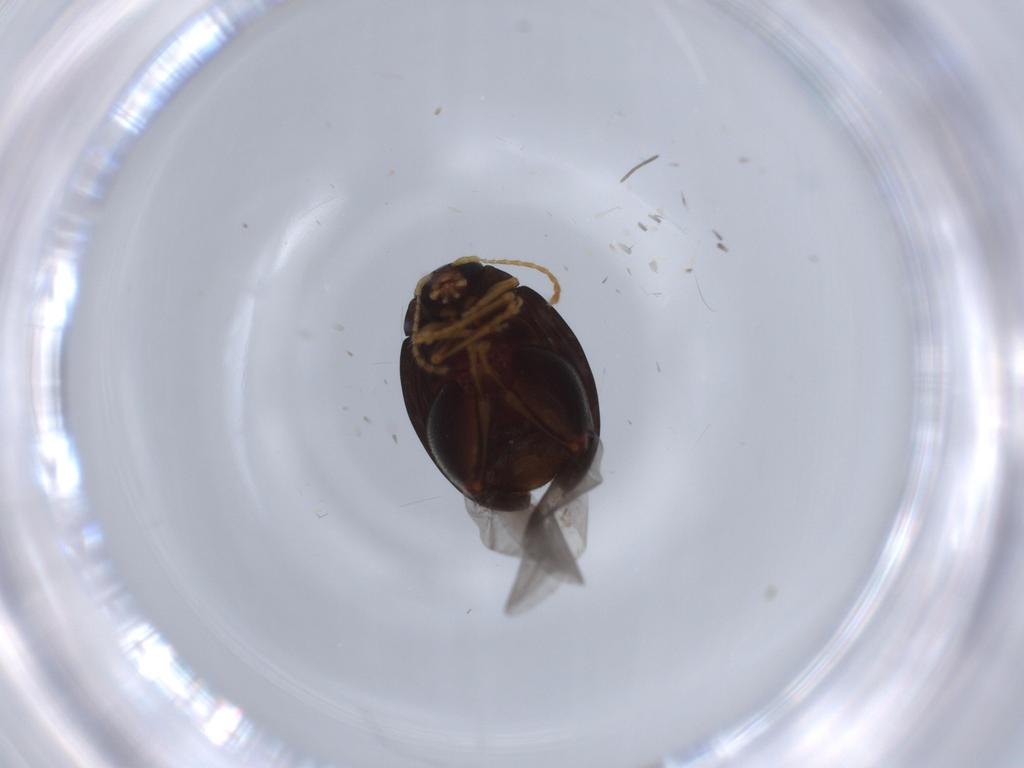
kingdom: Animalia
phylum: Arthropoda
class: Insecta
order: Coleoptera
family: Chrysomelidae
